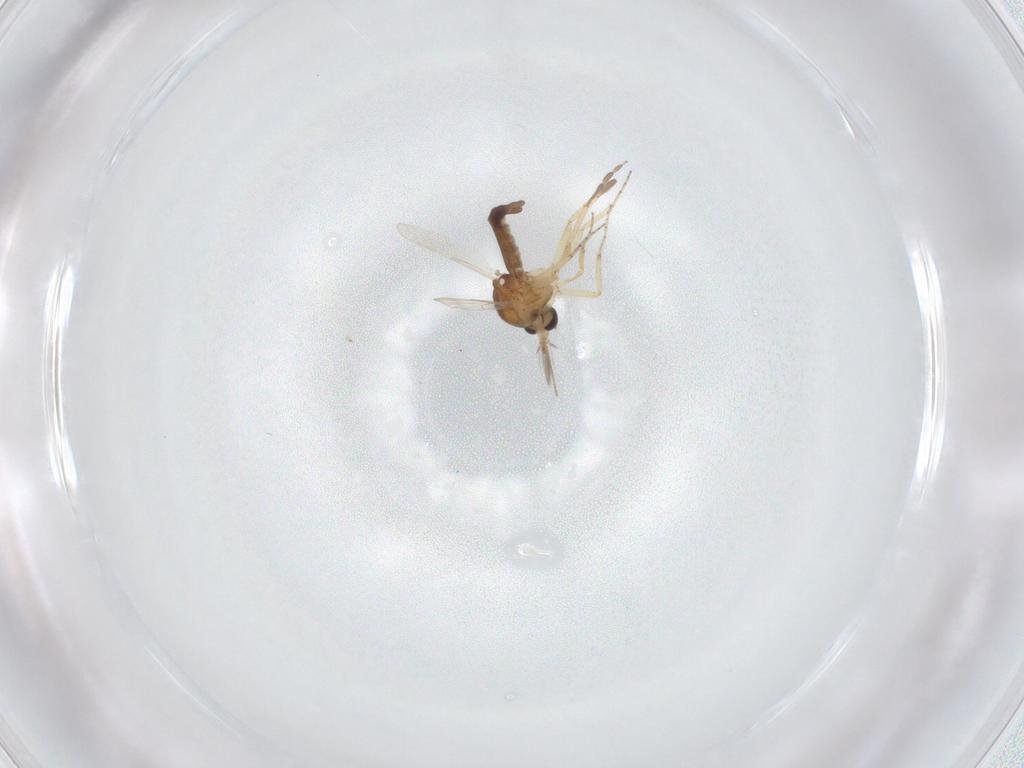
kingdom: Animalia
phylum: Arthropoda
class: Insecta
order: Diptera
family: Ceratopogonidae
